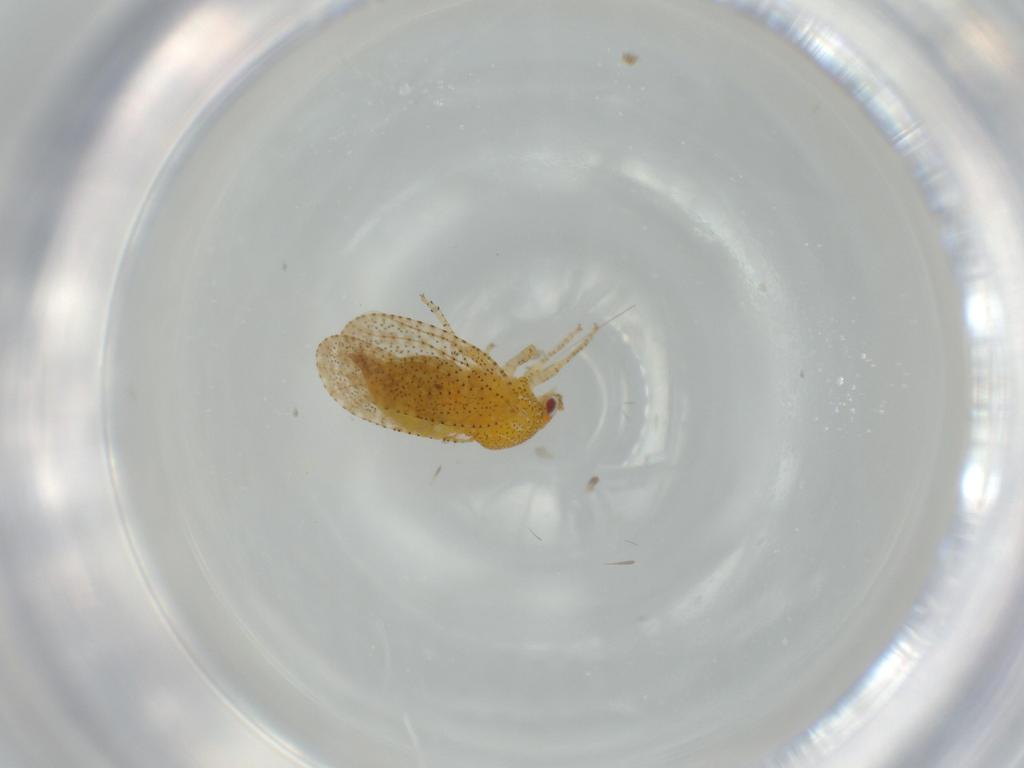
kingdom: Animalia
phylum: Arthropoda
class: Insecta
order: Hemiptera
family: Psyllidae
